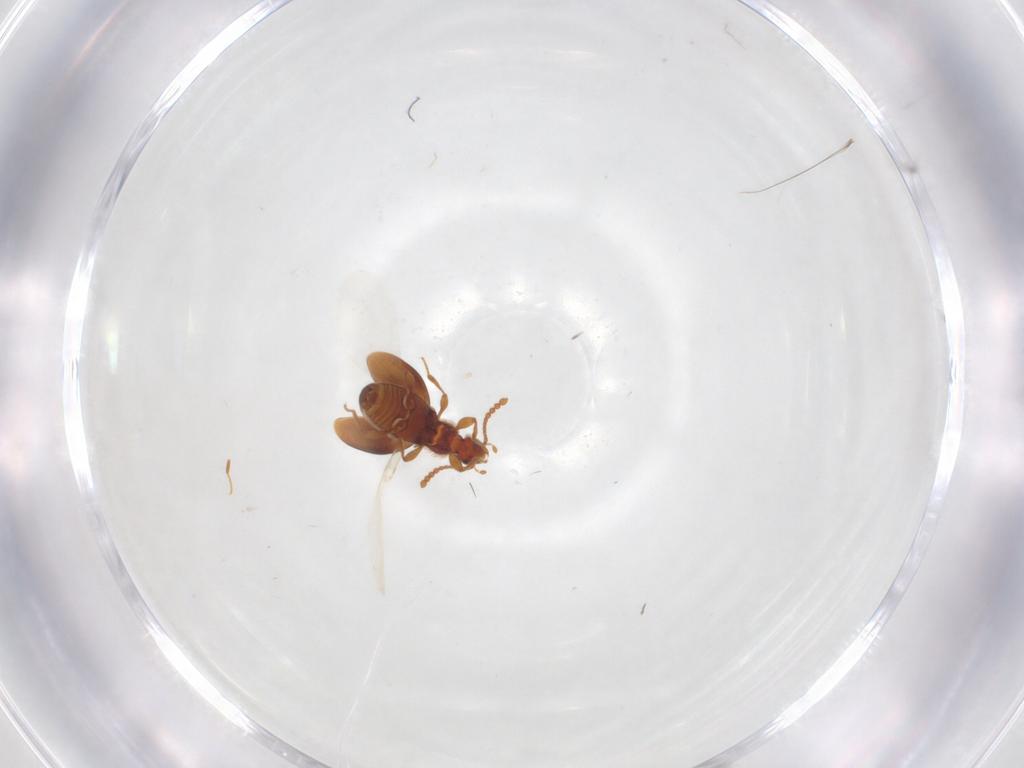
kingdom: Animalia
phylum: Arthropoda
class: Insecta
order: Coleoptera
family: Staphylinidae
